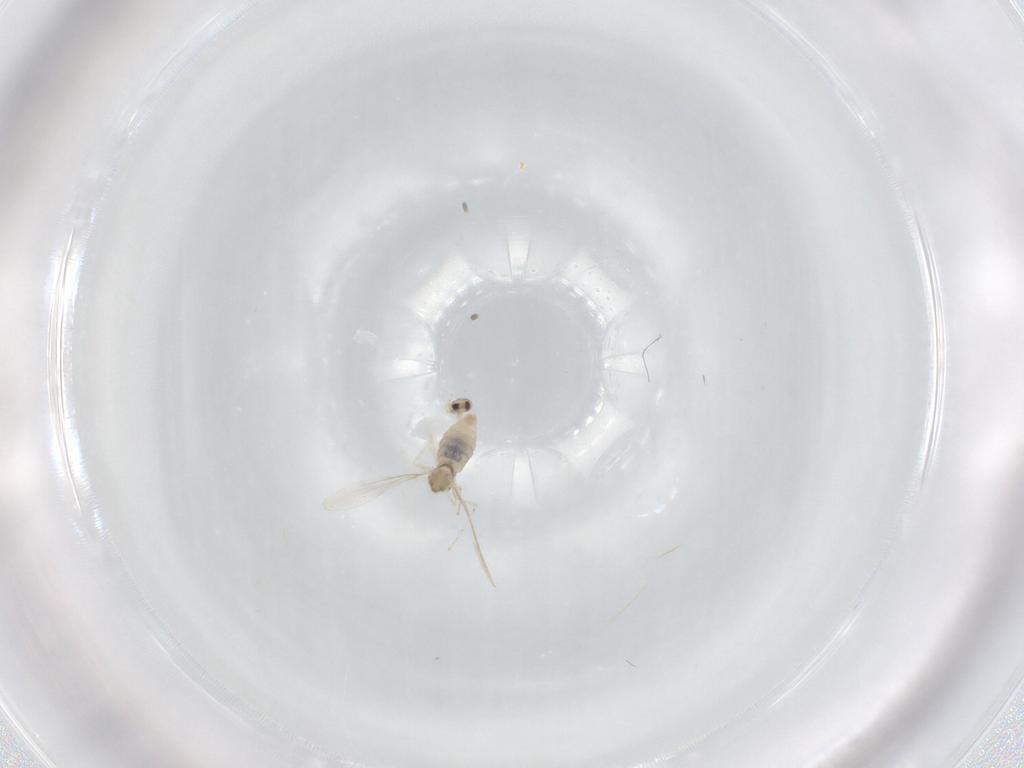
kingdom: Animalia
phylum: Arthropoda
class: Insecta
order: Diptera
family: Cecidomyiidae
